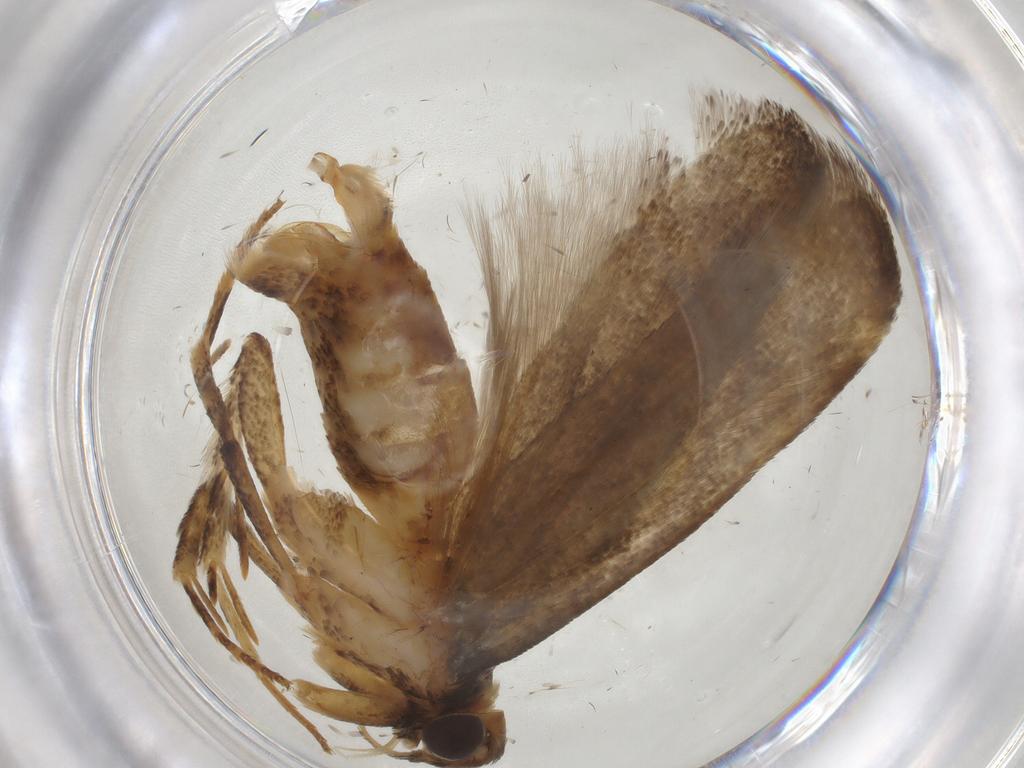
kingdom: Animalia
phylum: Arthropoda
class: Insecta
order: Lepidoptera
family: Gelechiidae
